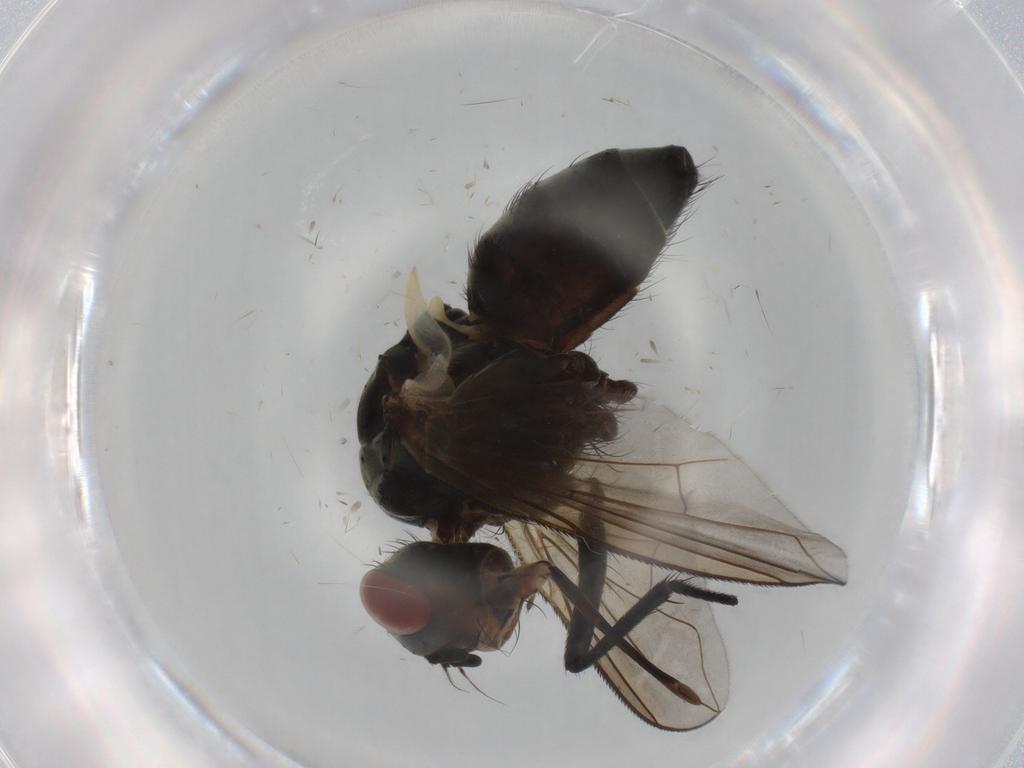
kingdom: Animalia
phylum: Arthropoda
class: Insecta
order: Diptera
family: Tachinidae
